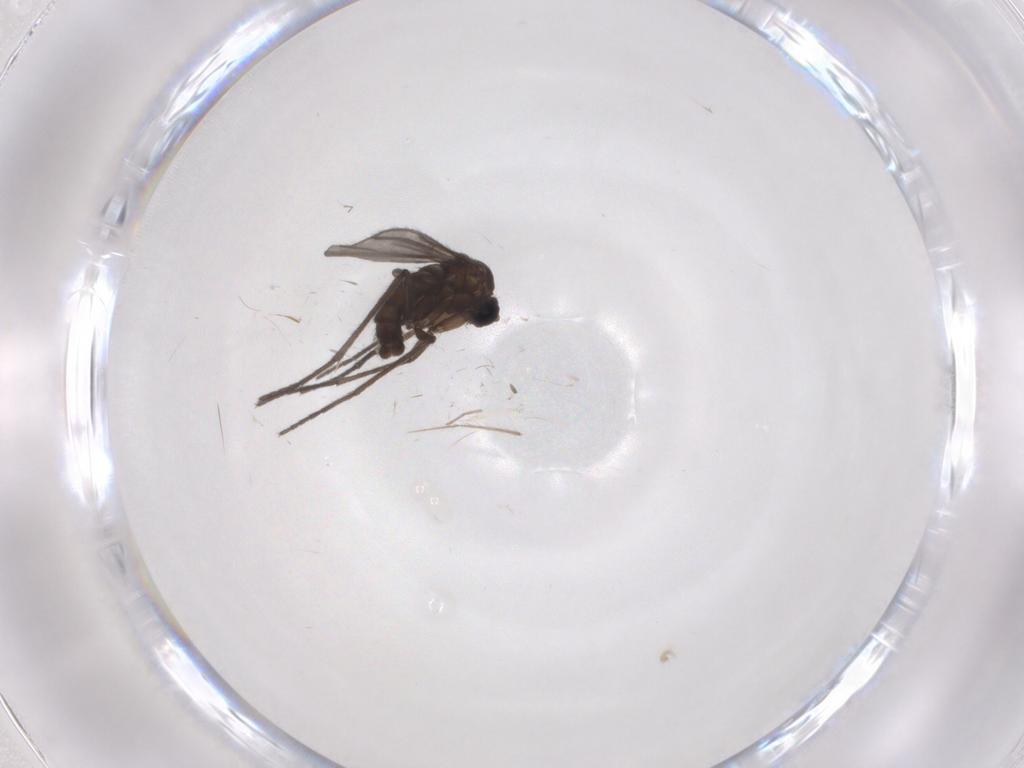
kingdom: Animalia
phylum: Arthropoda
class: Insecta
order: Diptera
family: Sciaridae
